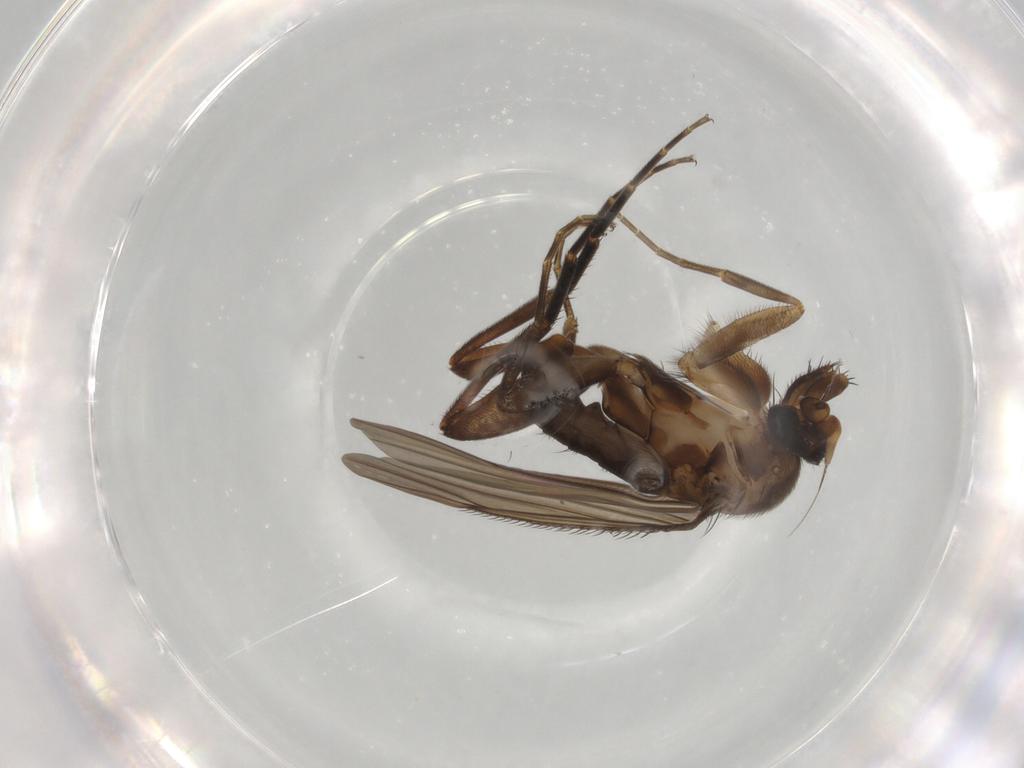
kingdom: Animalia
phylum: Arthropoda
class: Insecta
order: Diptera
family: Phoridae
